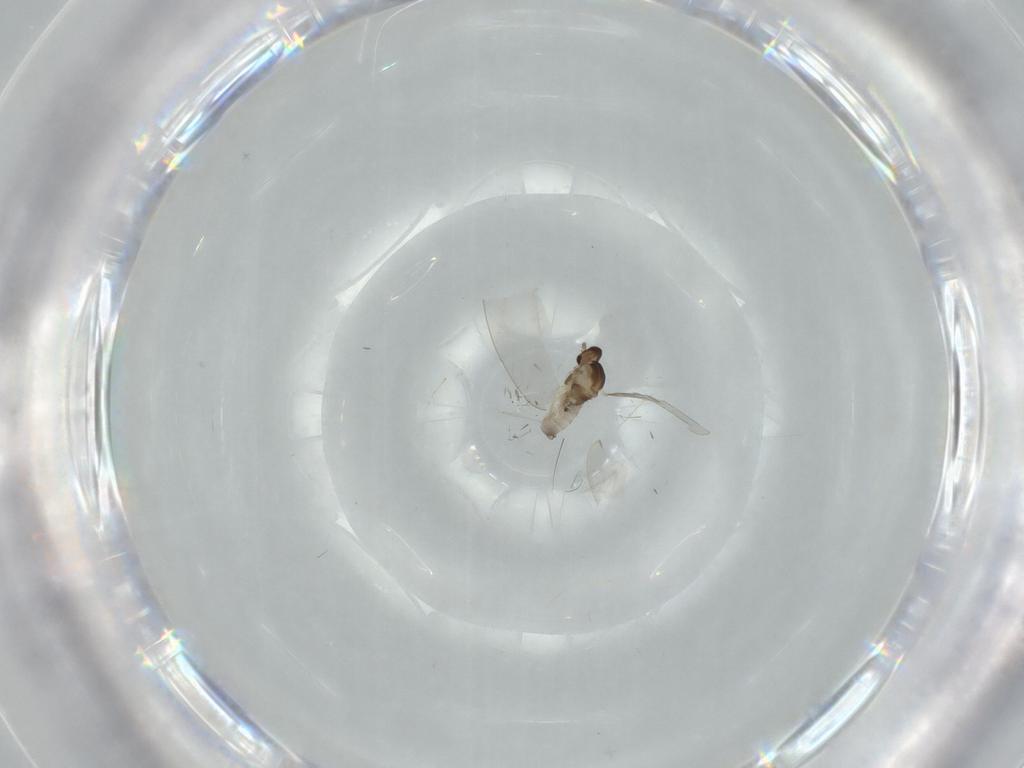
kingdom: Animalia
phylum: Arthropoda
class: Insecta
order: Diptera
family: Cecidomyiidae
